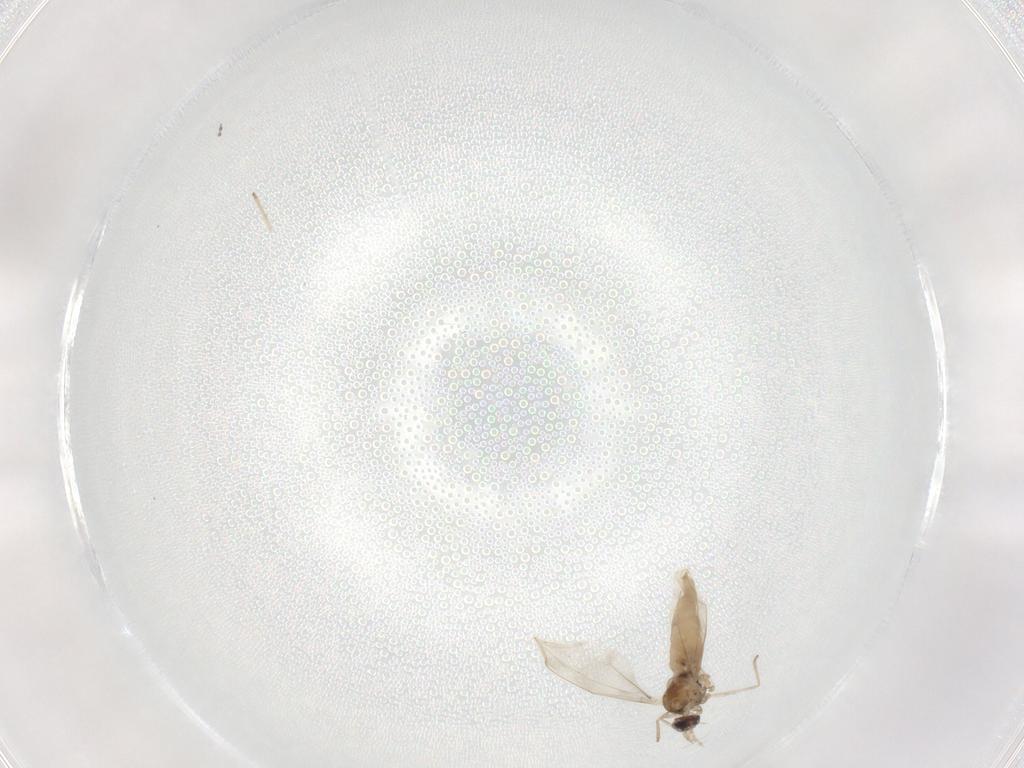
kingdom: Animalia
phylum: Arthropoda
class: Insecta
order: Diptera
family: Cecidomyiidae
